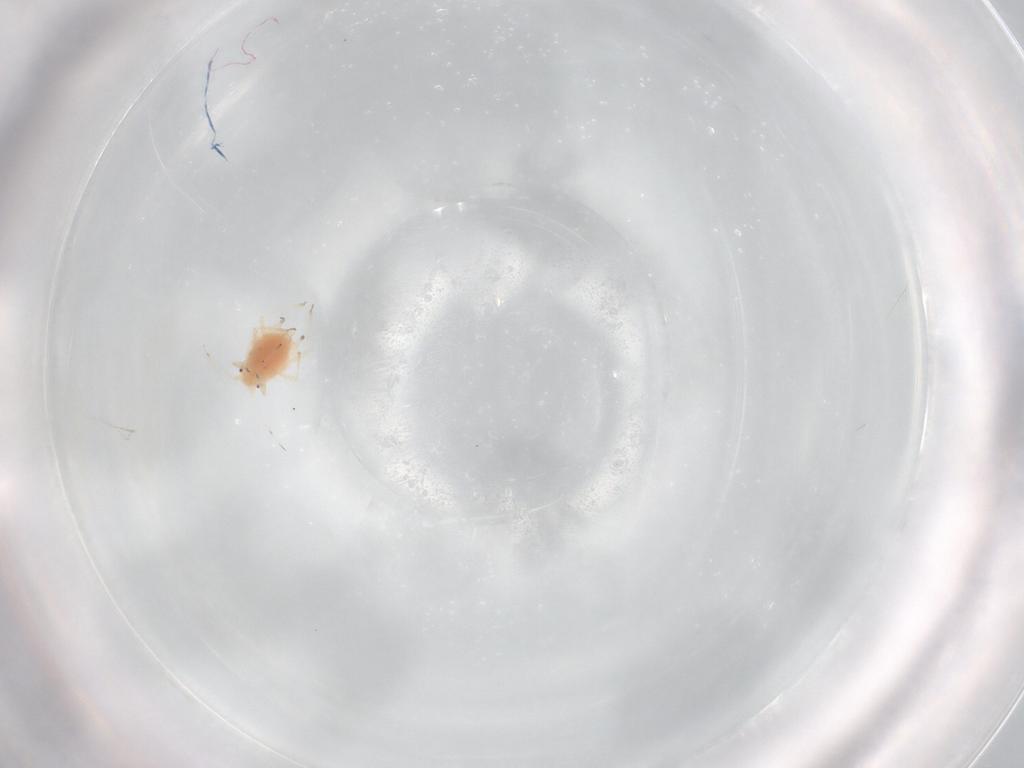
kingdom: Animalia
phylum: Arthropoda
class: Insecta
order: Hemiptera
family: Aphididae
